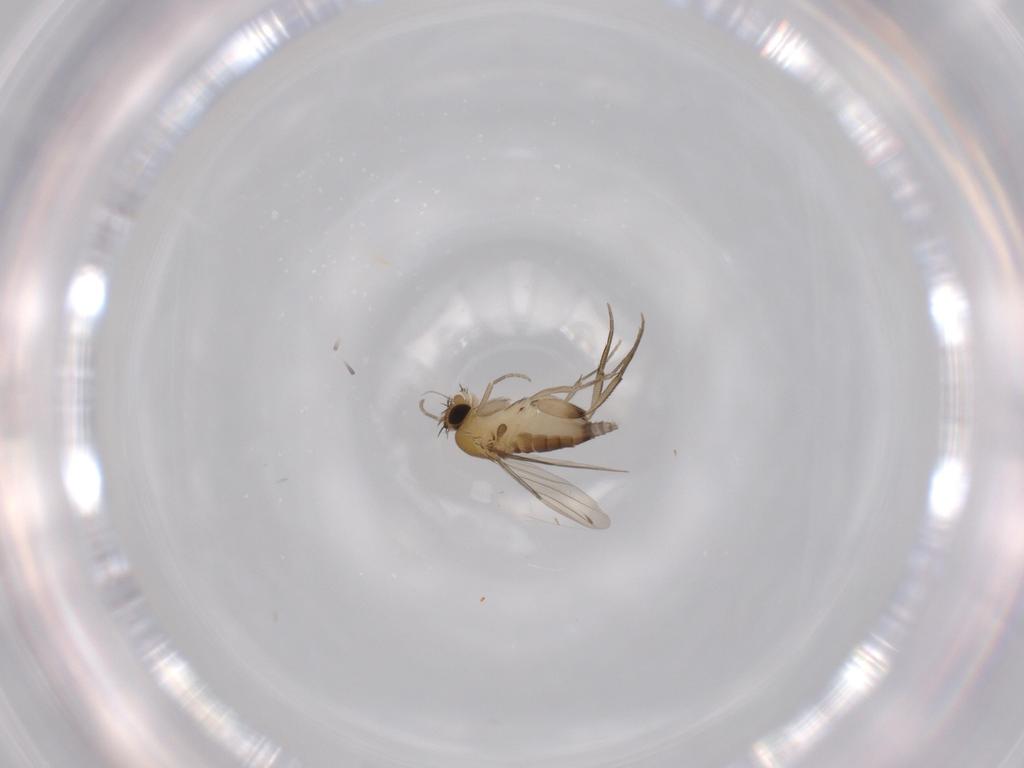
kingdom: Animalia
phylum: Arthropoda
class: Insecta
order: Diptera
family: Phoridae
